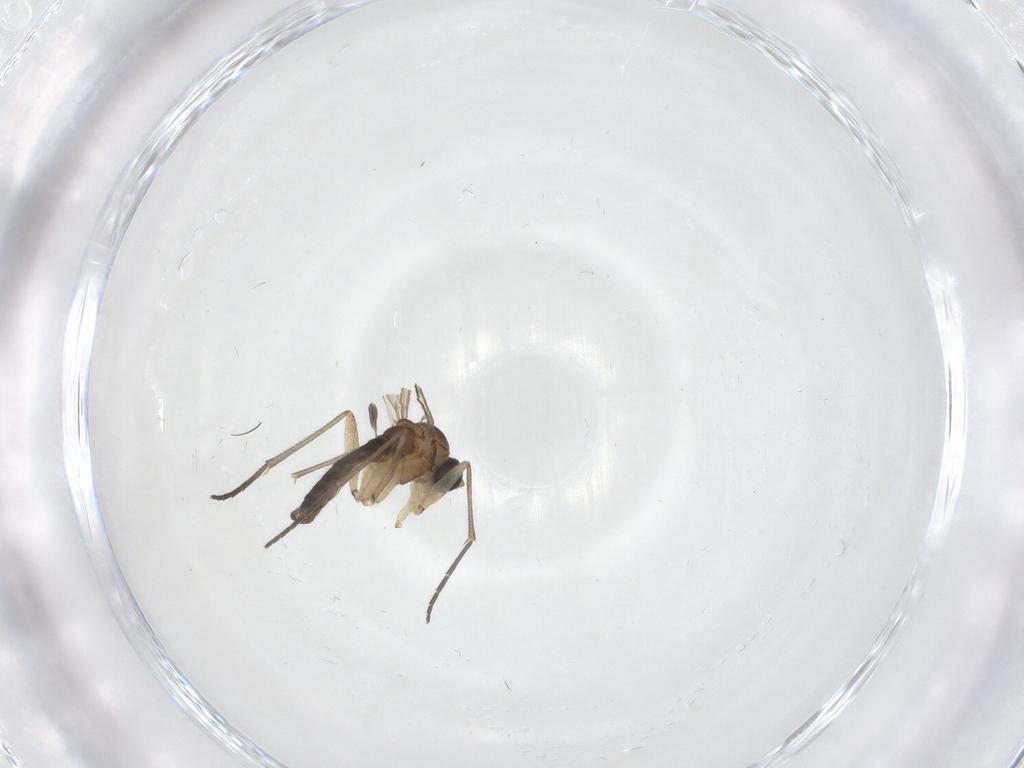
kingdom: Animalia
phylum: Arthropoda
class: Insecta
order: Diptera
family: Sciaridae
